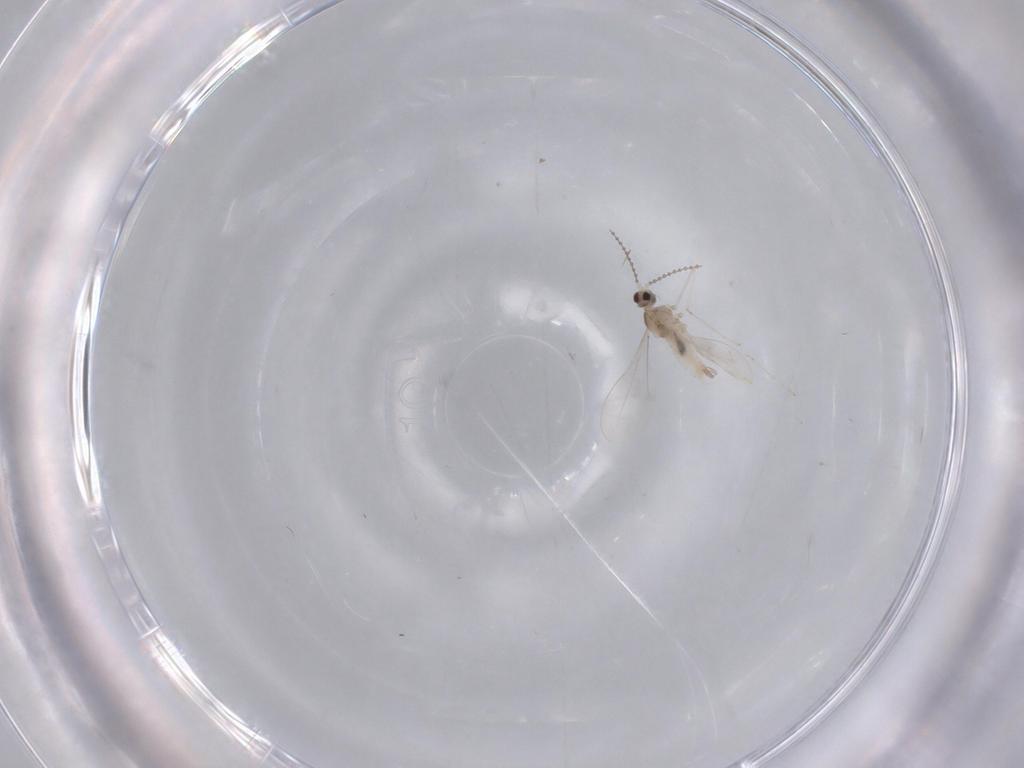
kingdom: Animalia
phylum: Arthropoda
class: Insecta
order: Diptera
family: Cecidomyiidae
